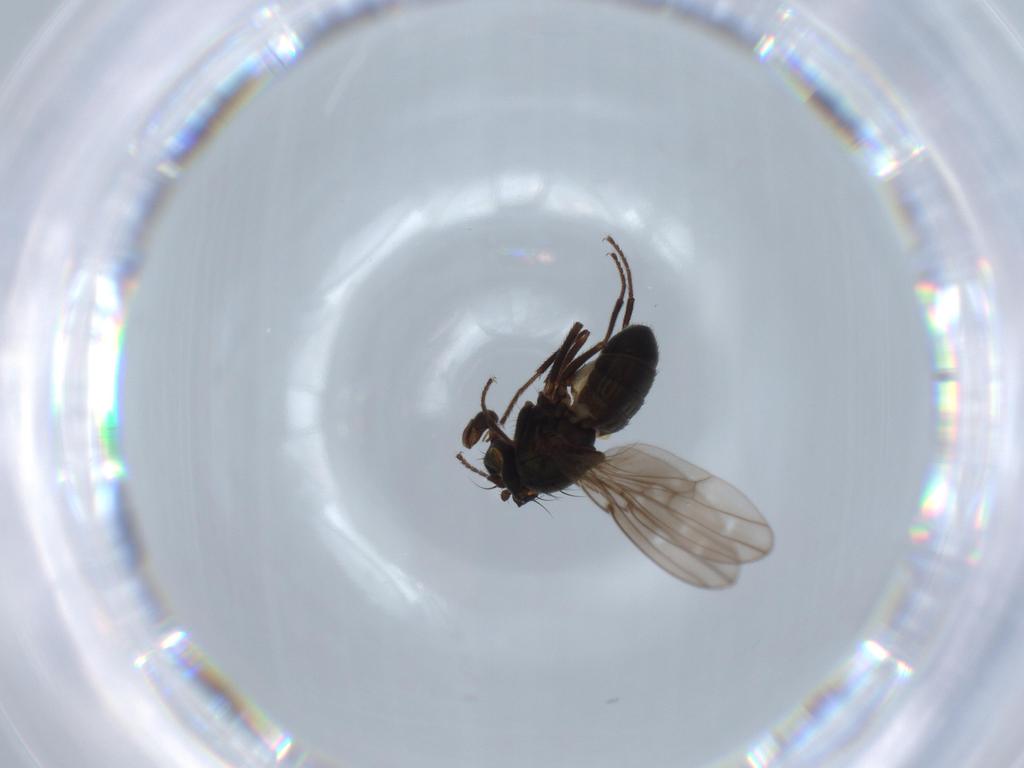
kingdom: Animalia
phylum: Arthropoda
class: Insecta
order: Diptera
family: Ephydridae
